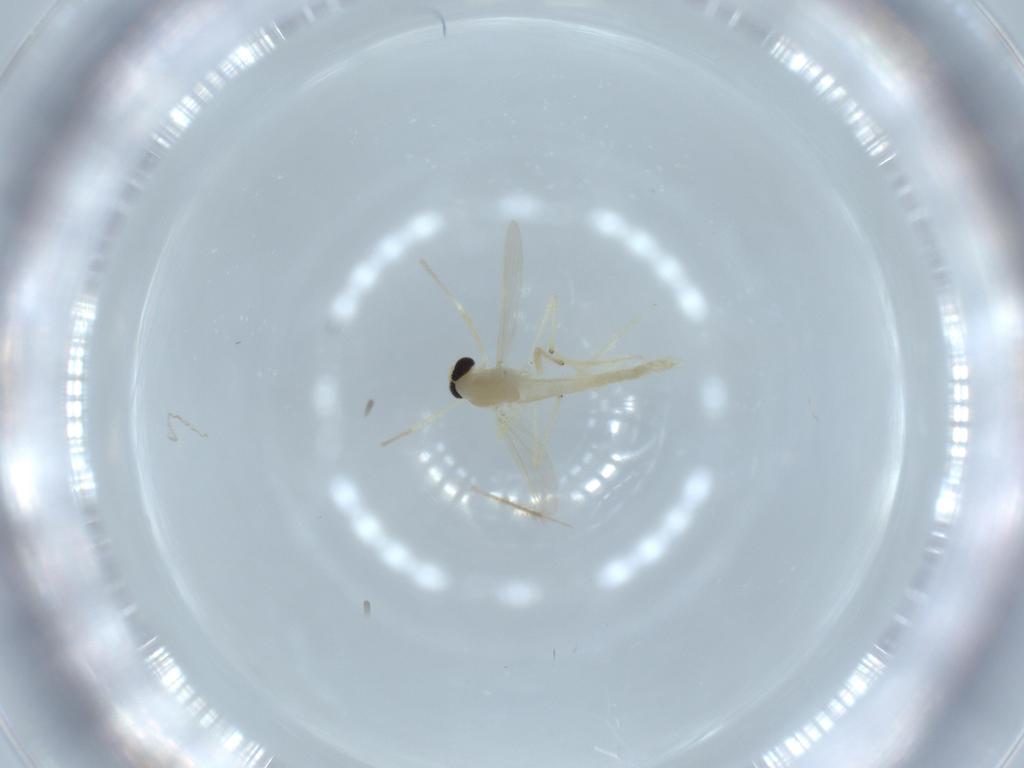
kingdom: Animalia
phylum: Arthropoda
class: Insecta
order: Diptera
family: Chironomidae
